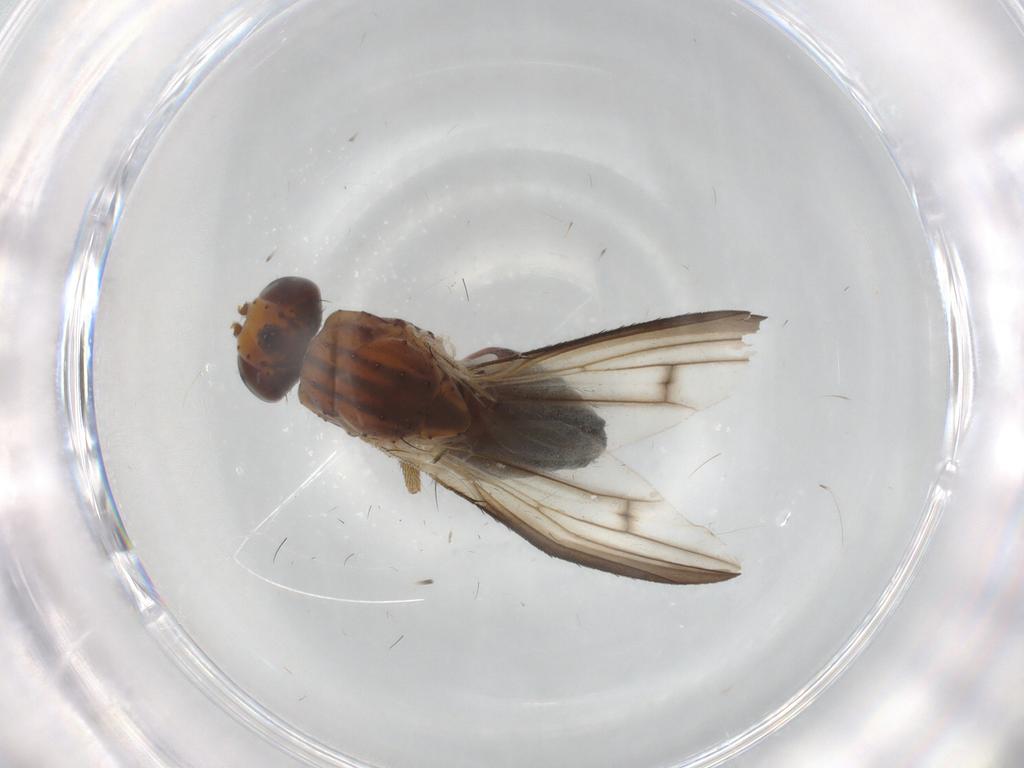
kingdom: Animalia
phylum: Arthropoda
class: Insecta
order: Diptera
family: Heleomyzidae
